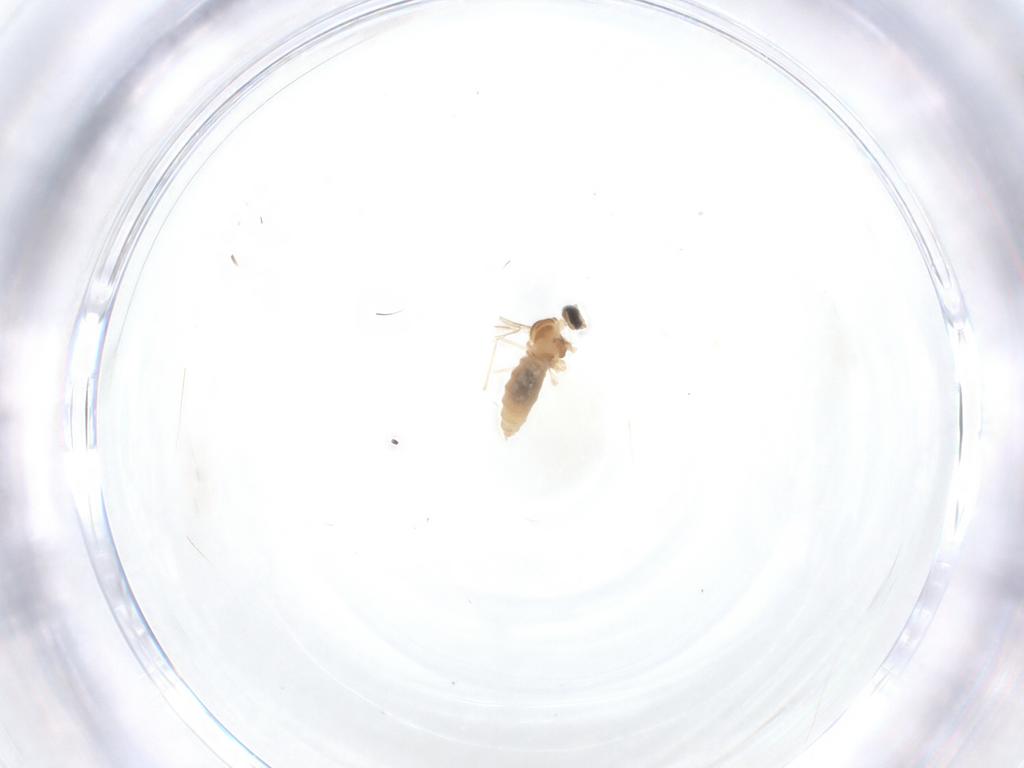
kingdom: Animalia
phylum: Arthropoda
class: Insecta
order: Diptera
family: Cecidomyiidae
